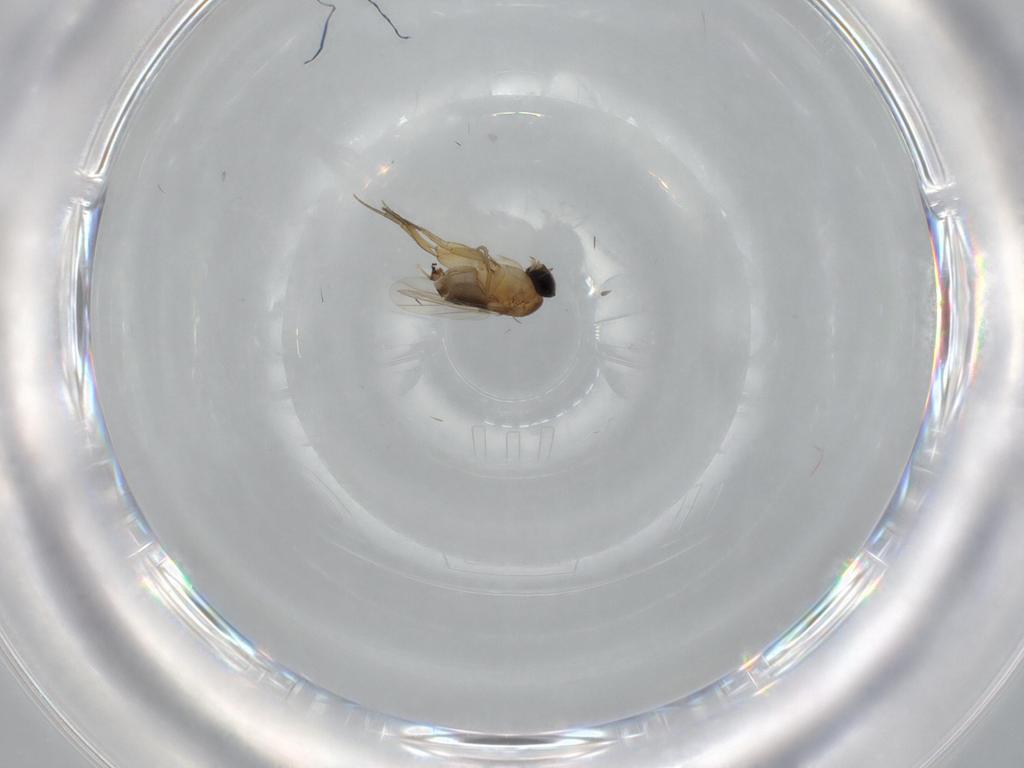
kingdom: Animalia
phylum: Arthropoda
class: Insecta
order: Diptera
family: Phoridae
